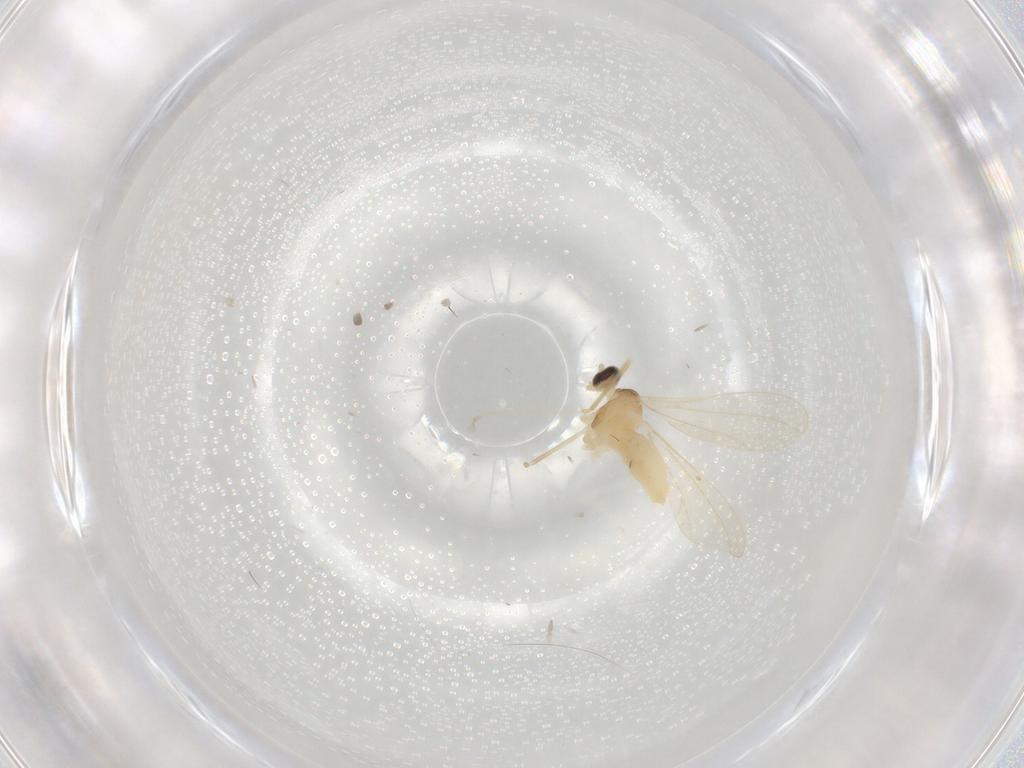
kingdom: Animalia
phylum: Arthropoda
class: Insecta
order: Diptera
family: Cecidomyiidae
